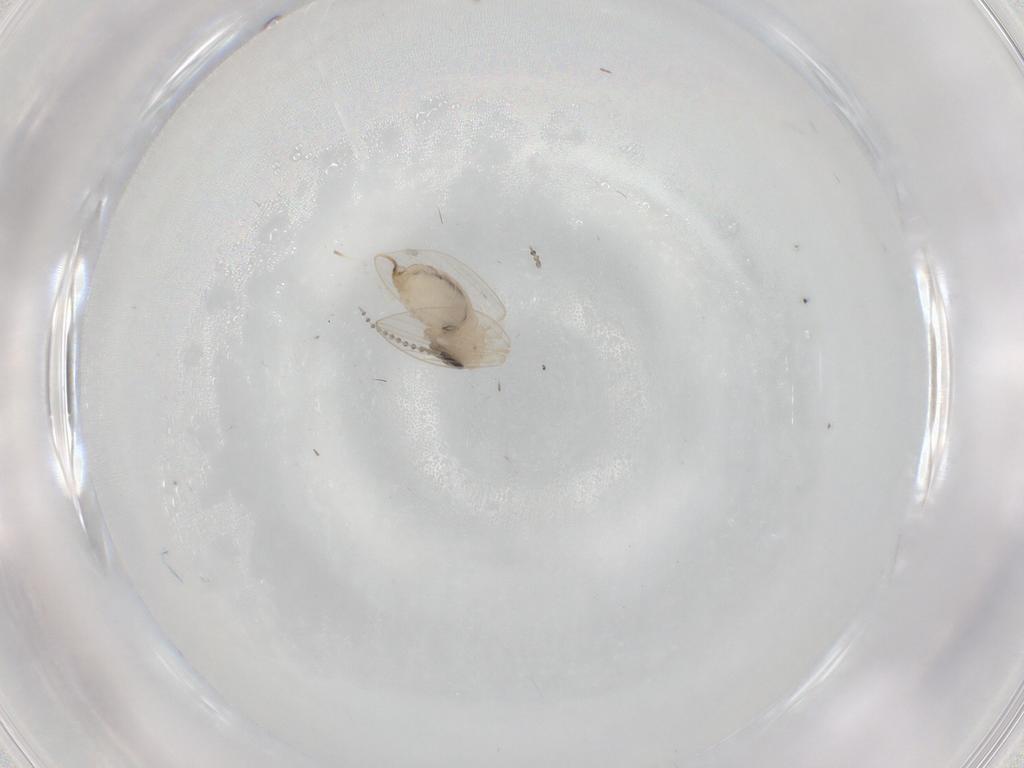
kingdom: Animalia
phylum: Arthropoda
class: Insecta
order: Diptera
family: Psychodidae
